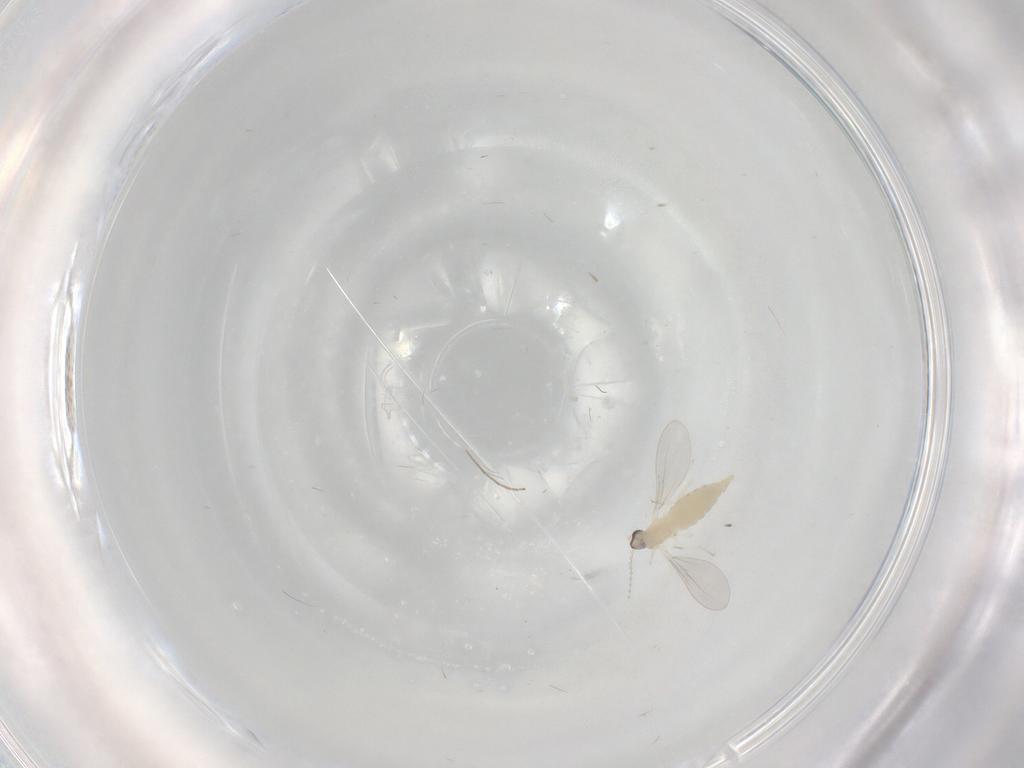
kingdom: Animalia
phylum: Arthropoda
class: Insecta
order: Diptera
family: Cecidomyiidae
